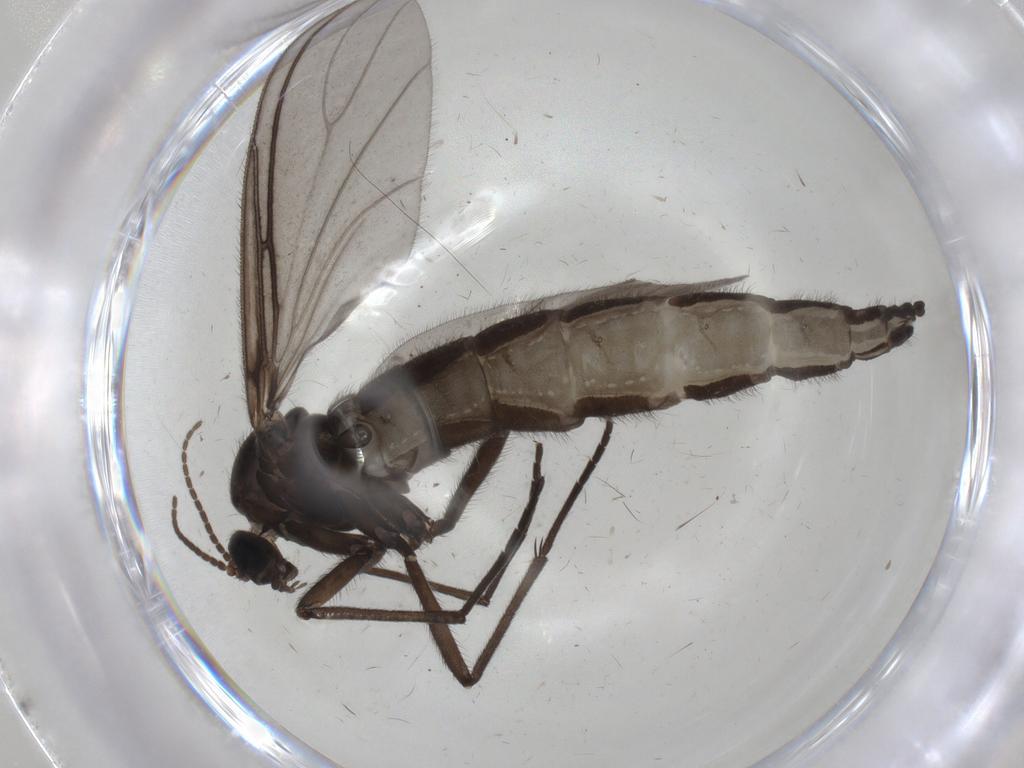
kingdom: Animalia
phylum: Arthropoda
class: Insecta
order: Diptera
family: Sciaridae
